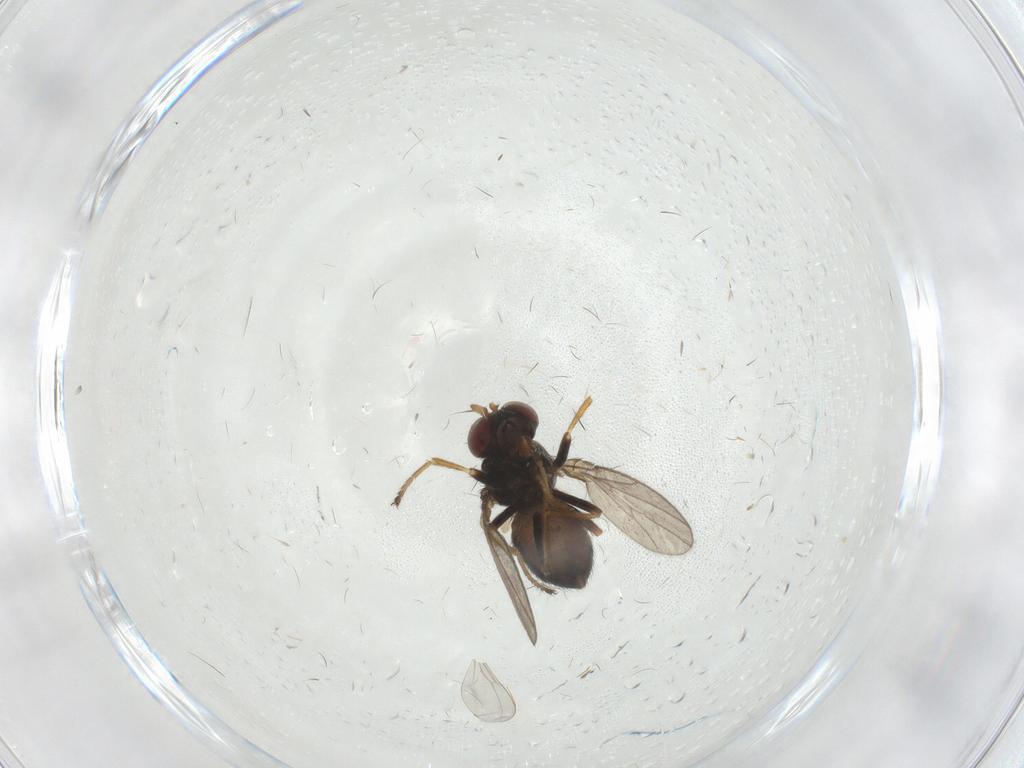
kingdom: Animalia
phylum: Arthropoda
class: Insecta
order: Diptera
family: Ephydridae
